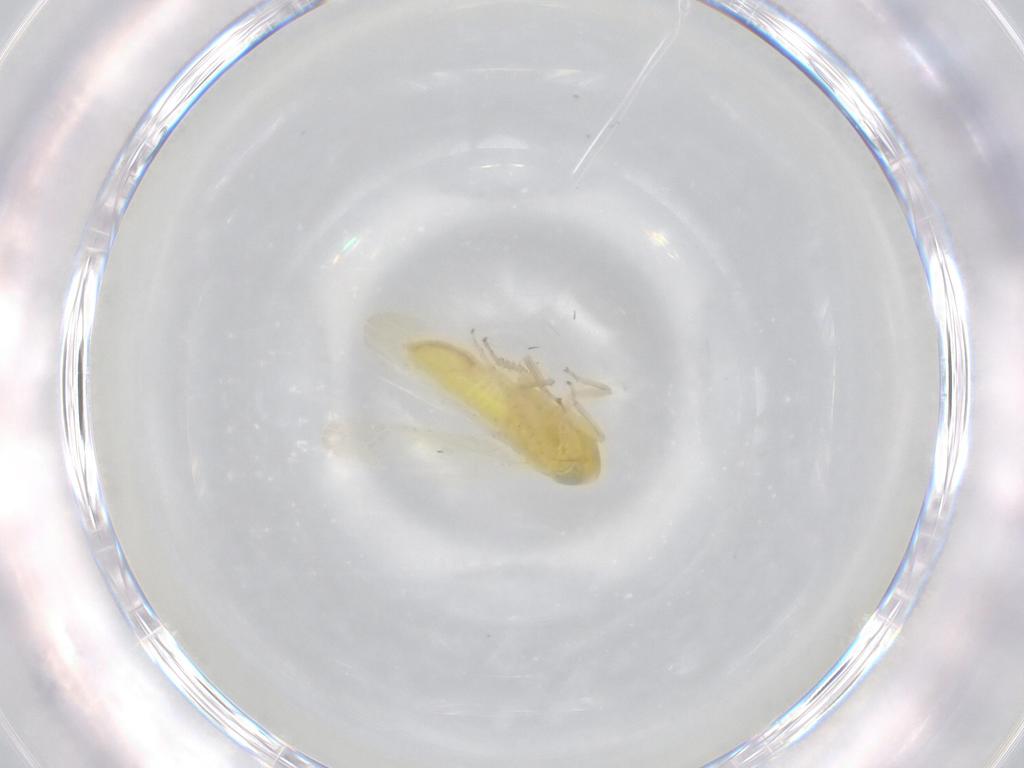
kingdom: Animalia
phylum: Arthropoda
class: Insecta
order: Hemiptera
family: Cicadellidae
